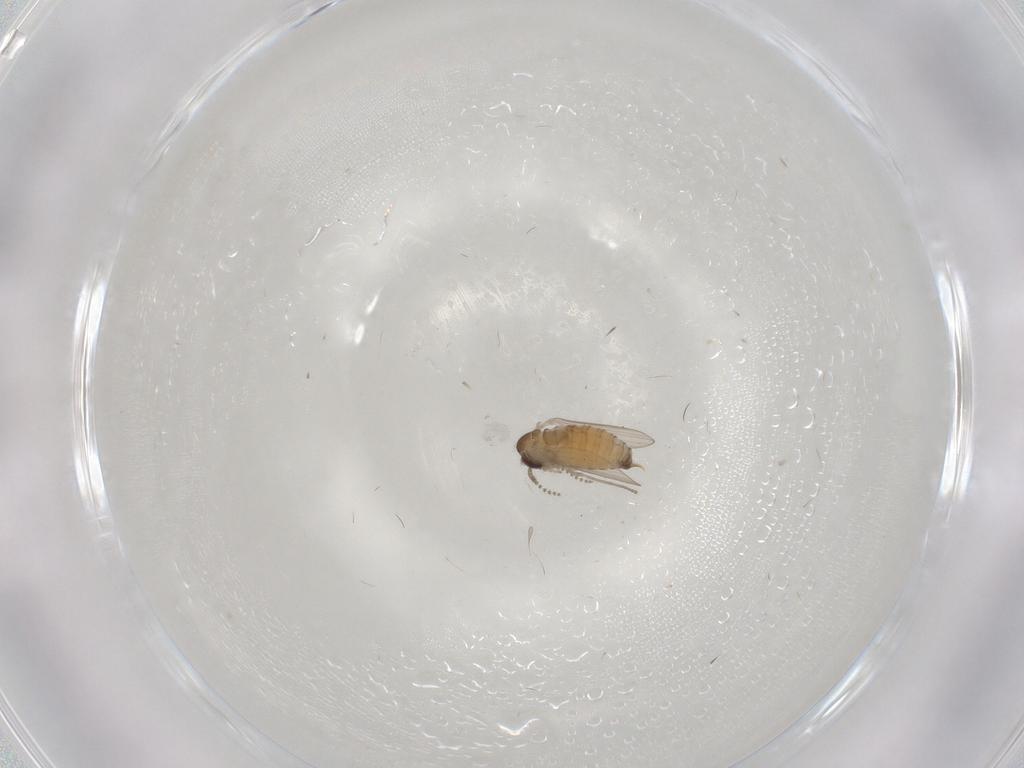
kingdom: Animalia
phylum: Arthropoda
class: Insecta
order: Diptera
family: Psychodidae
